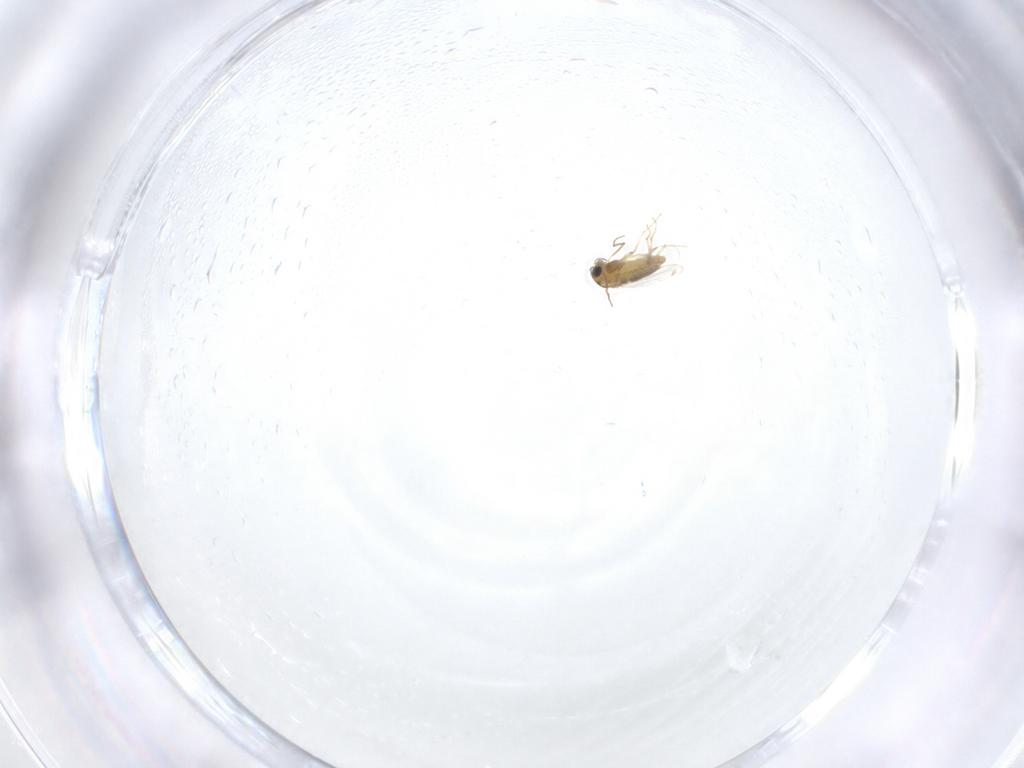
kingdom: Animalia
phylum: Arthropoda
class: Insecta
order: Diptera
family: Chironomidae
